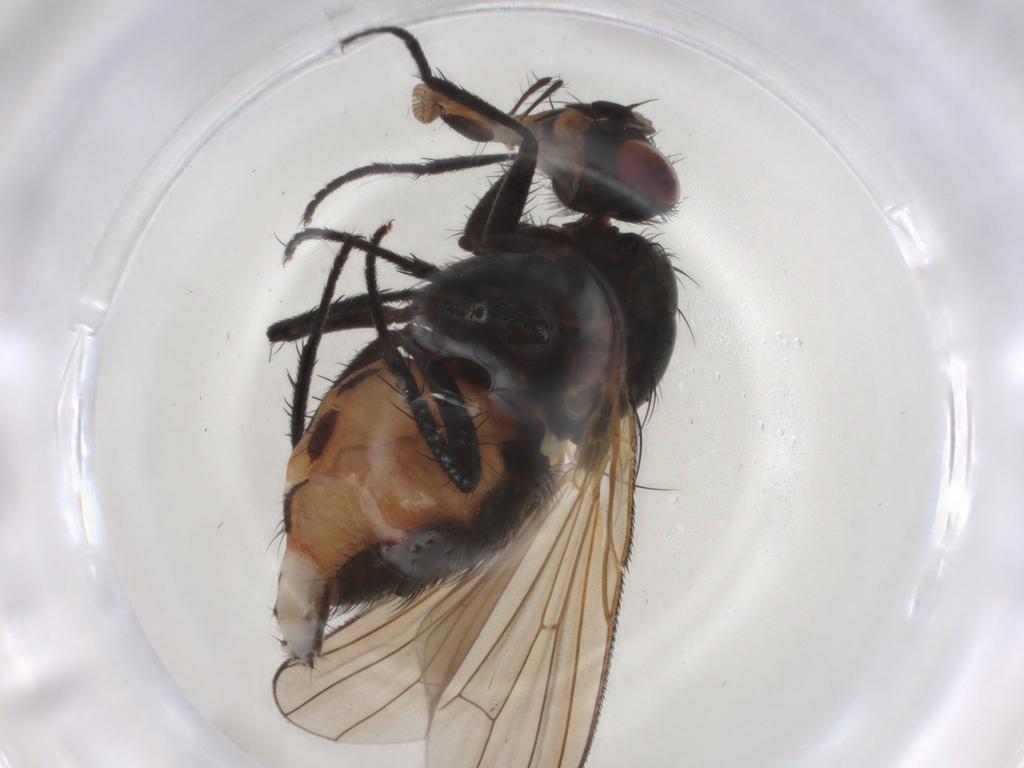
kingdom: Animalia
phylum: Arthropoda
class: Insecta
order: Diptera
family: Anthomyiidae
